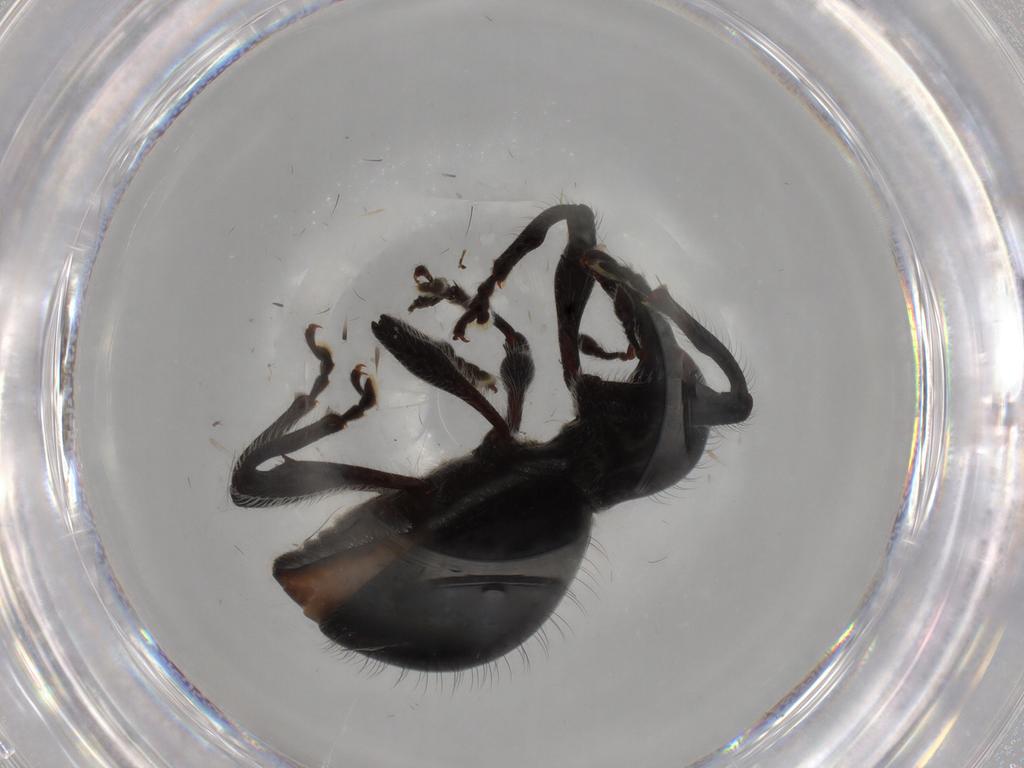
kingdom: Animalia
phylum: Arthropoda
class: Insecta
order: Coleoptera
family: Curculionidae
